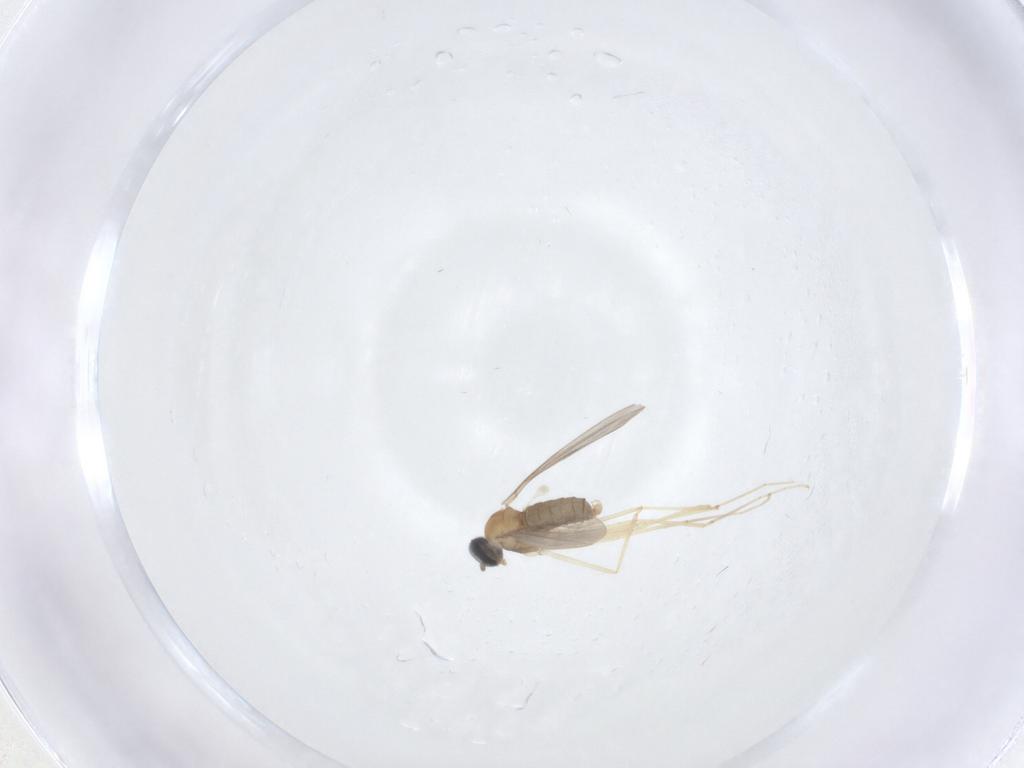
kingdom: Animalia
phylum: Arthropoda
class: Insecta
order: Diptera
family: Cecidomyiidae
